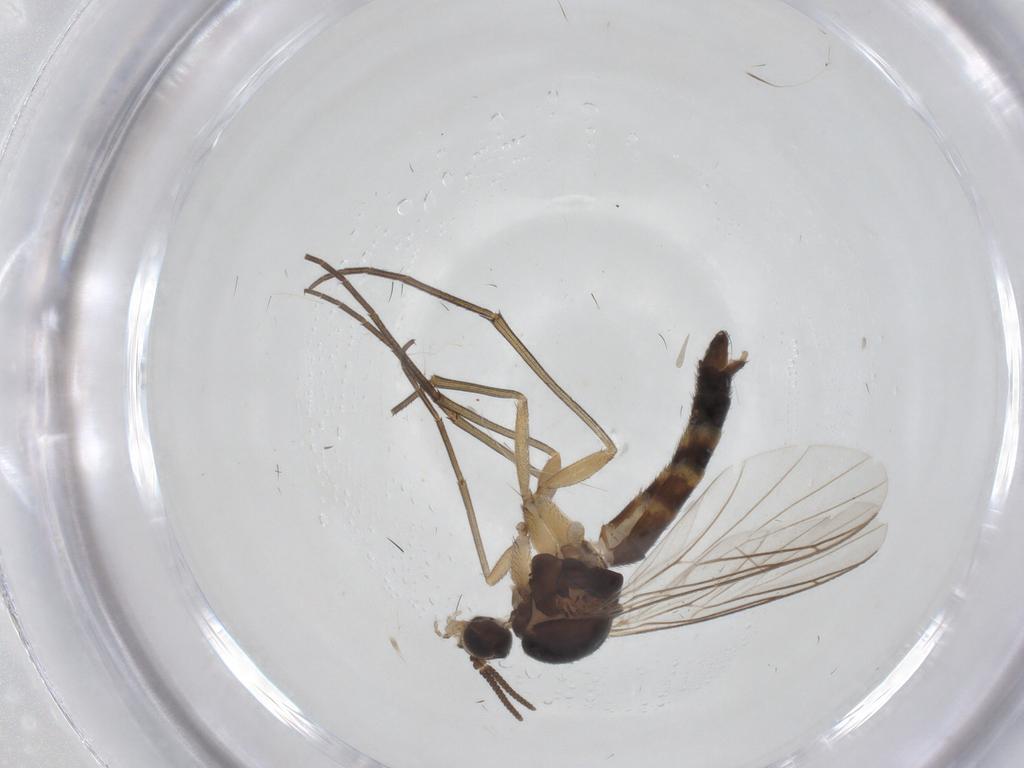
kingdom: Animalia
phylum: Arthropoda
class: Insecta
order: Diptera
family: Keroplatidae
